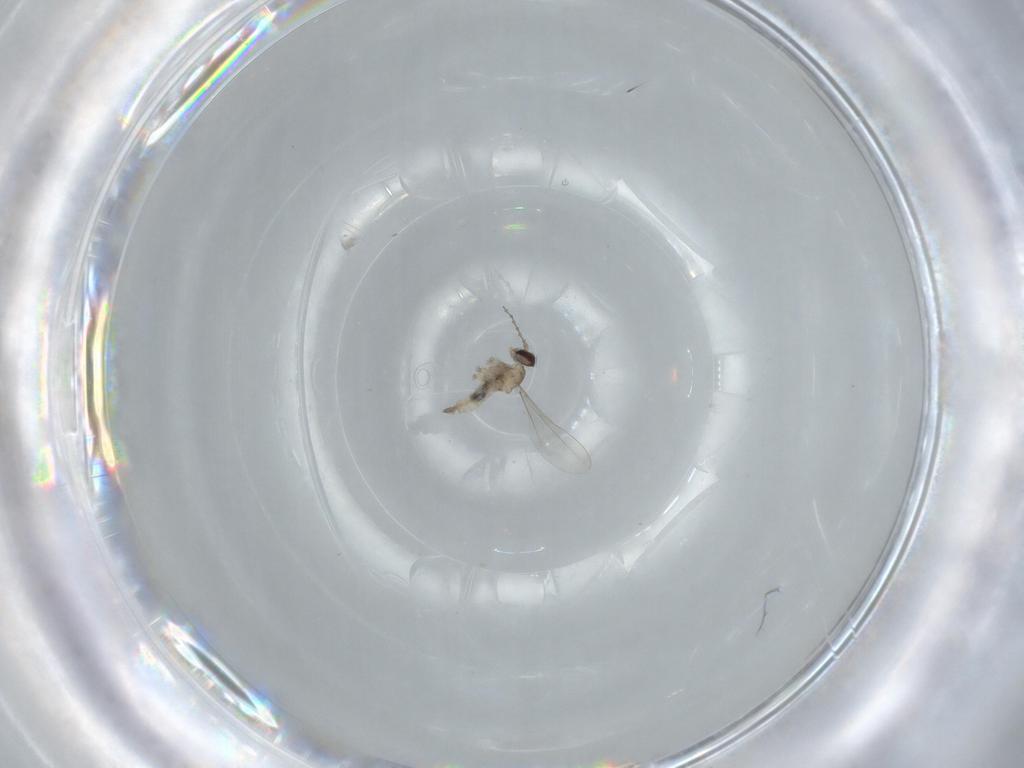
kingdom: Animalia
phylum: Arthropoda
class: Insecta
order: Diptera
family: Cecidomyiidae
